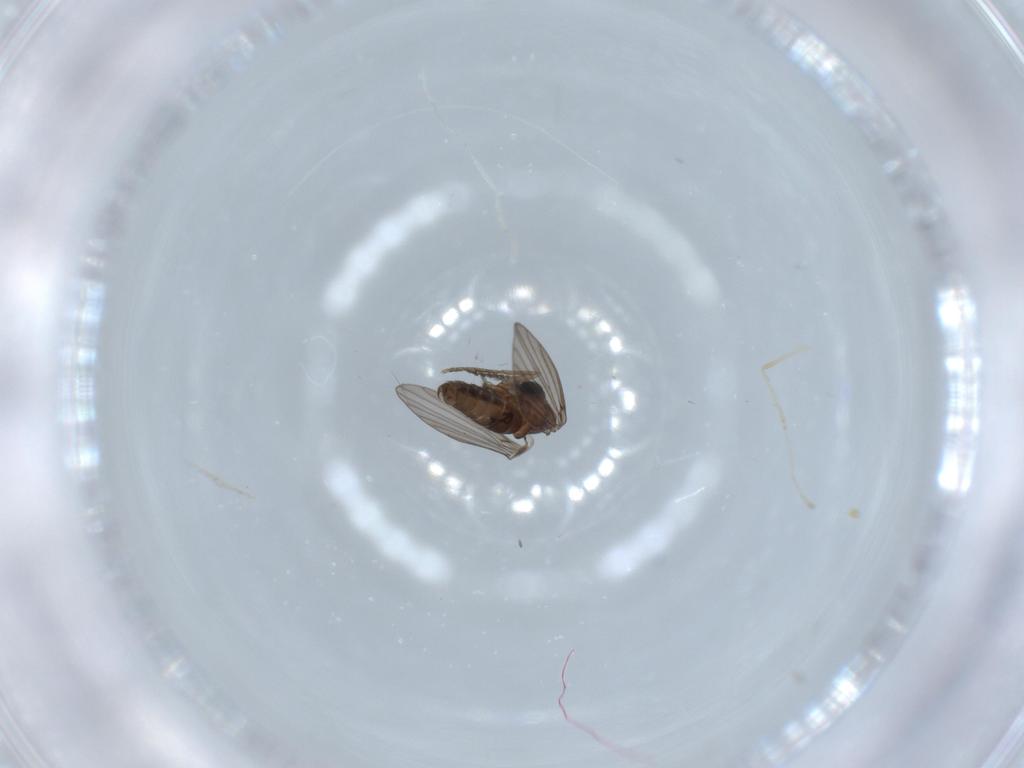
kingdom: Animalia
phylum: Arthropoda
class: Insecta
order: Diptera
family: Psychodidae
